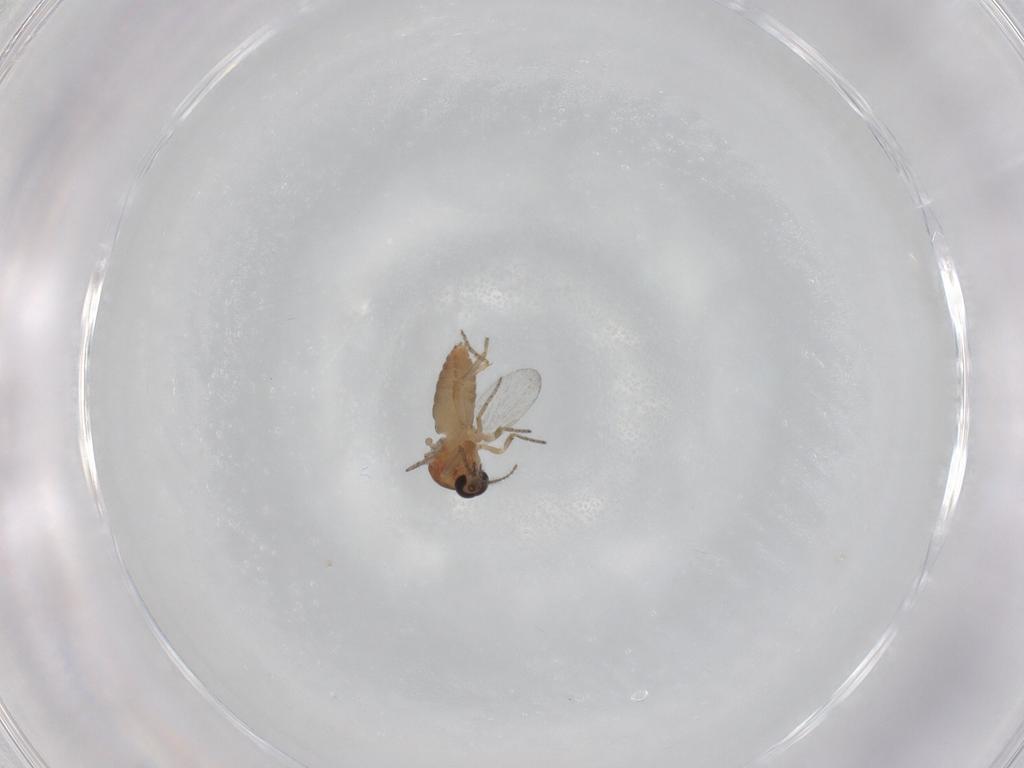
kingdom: Animalia
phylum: Arthropoda
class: Insecta
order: Diptera
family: Ceratopogonidae
